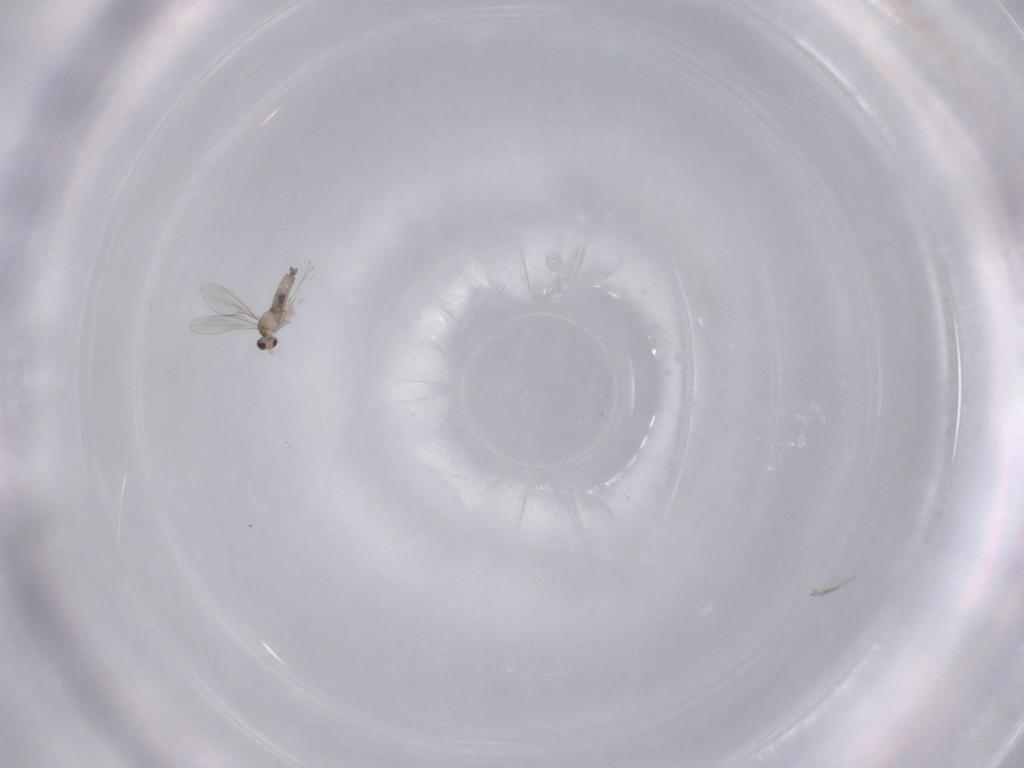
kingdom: Animalia
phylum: Arthropoda
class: Insecta
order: Diptera
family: Cecidomyiidae
